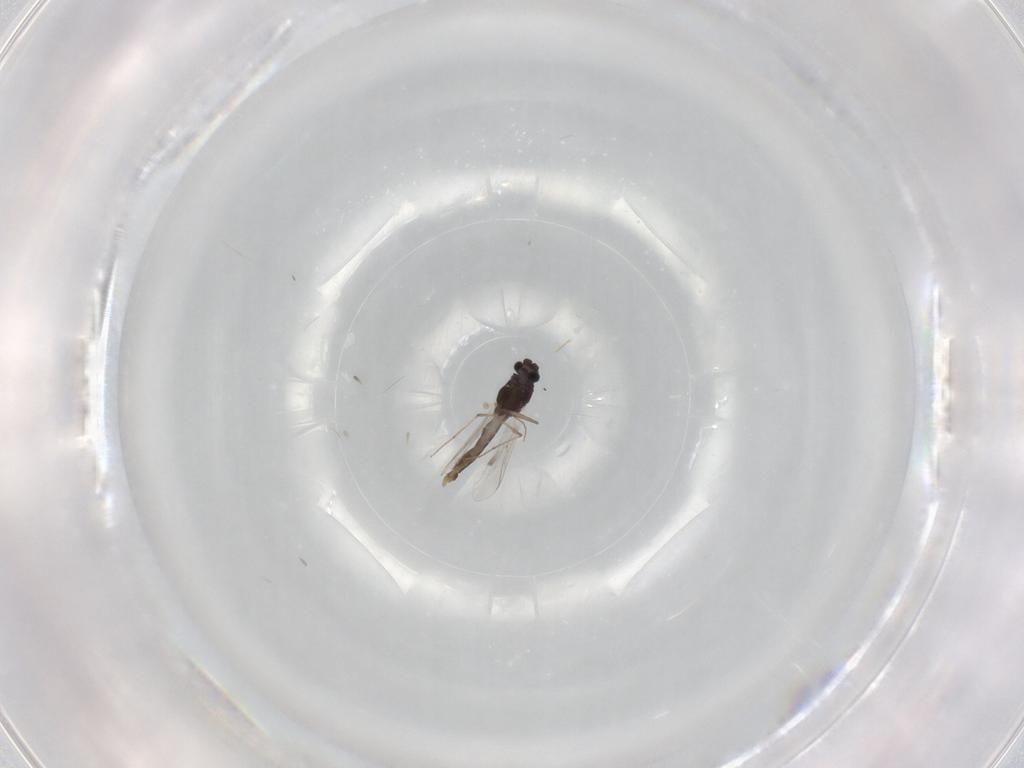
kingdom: Animalia
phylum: Arthropoda
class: Insecta
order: Diptera
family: Chironomidae
